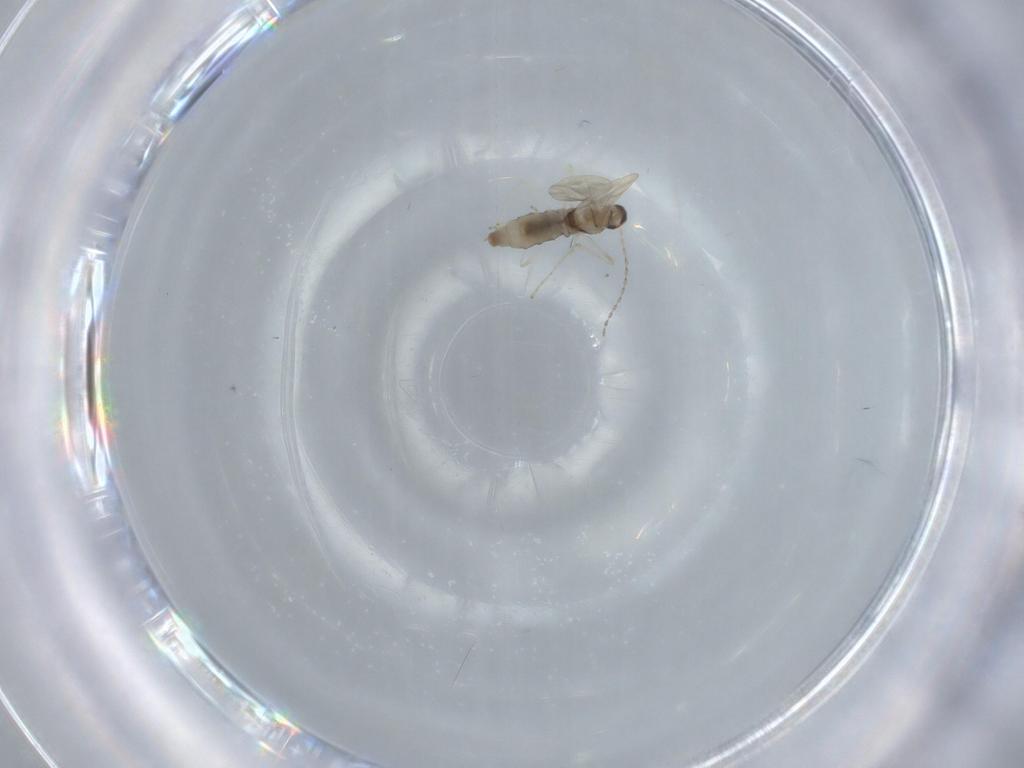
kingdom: Animalia
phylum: Arthropoda
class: Insecta
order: Diptera
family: Cecidomyiidae
